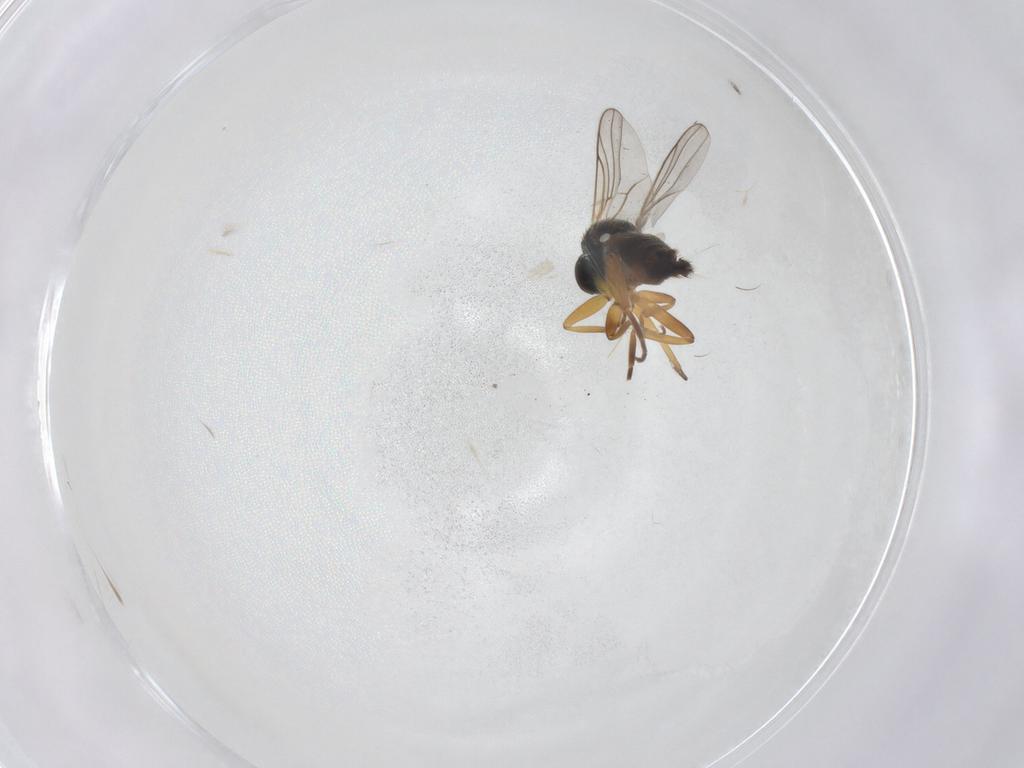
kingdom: Animalia
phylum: Arthropoda
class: Insecta
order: Diptera
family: Hybotidae
